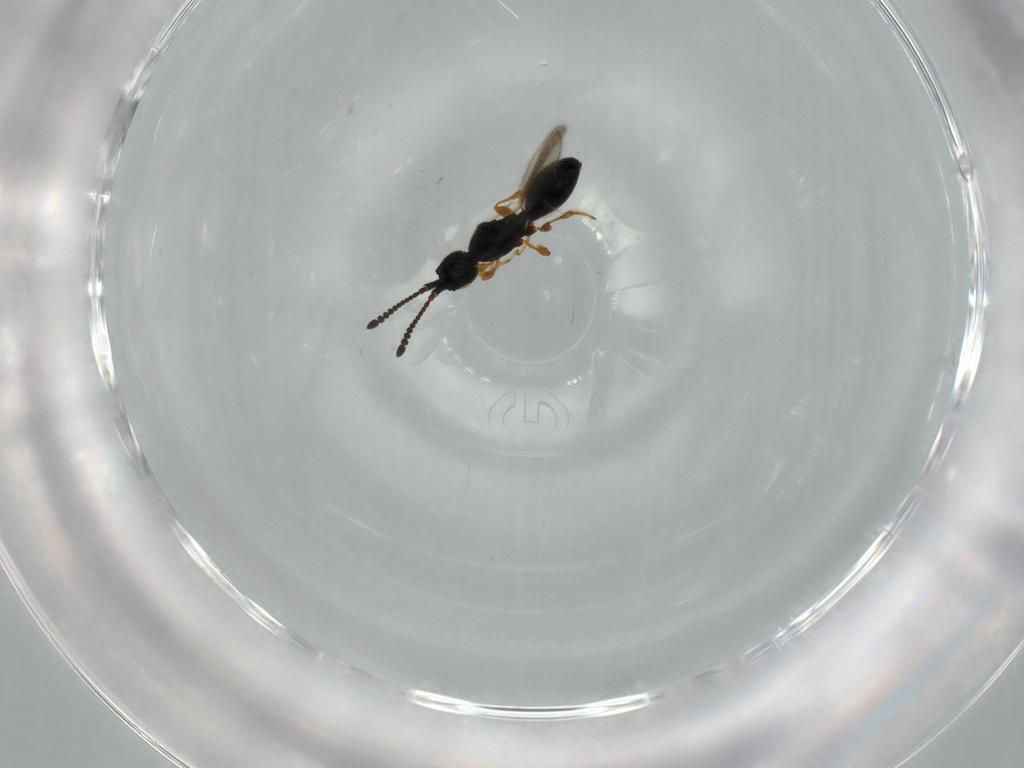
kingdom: Animalia
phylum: Arthropoda
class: Insecta
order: Hymenoptera
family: Diapriidae
